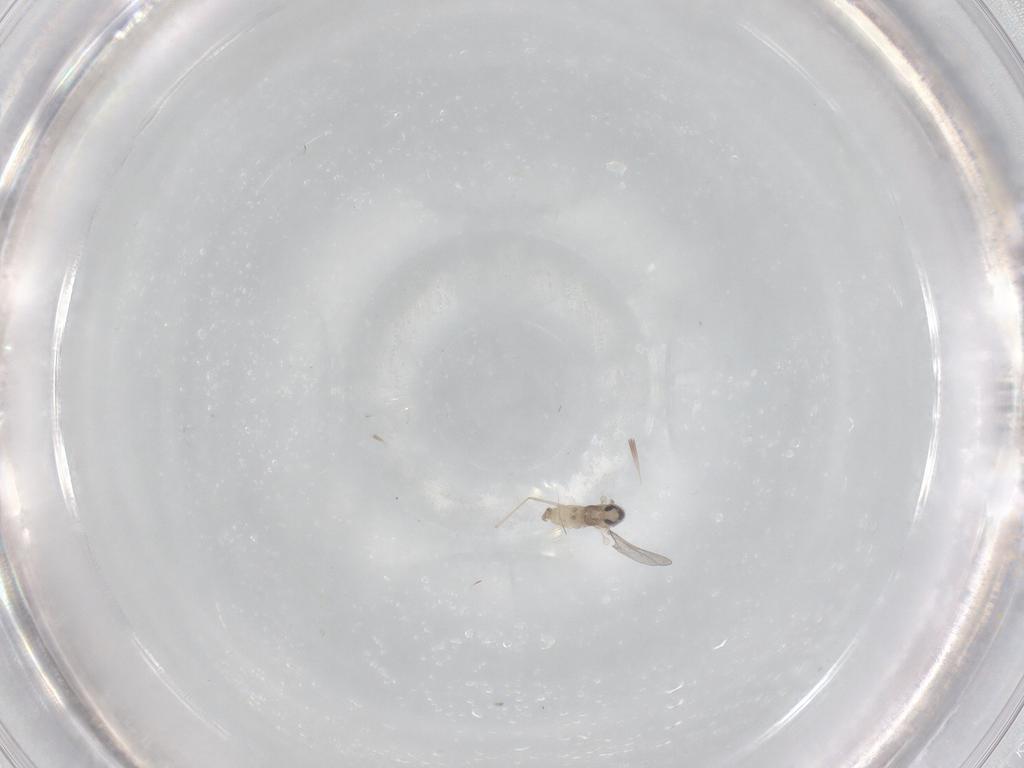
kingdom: Animalia
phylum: Arthropoda
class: Insecta
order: Diptera
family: Cecidomyiidae
